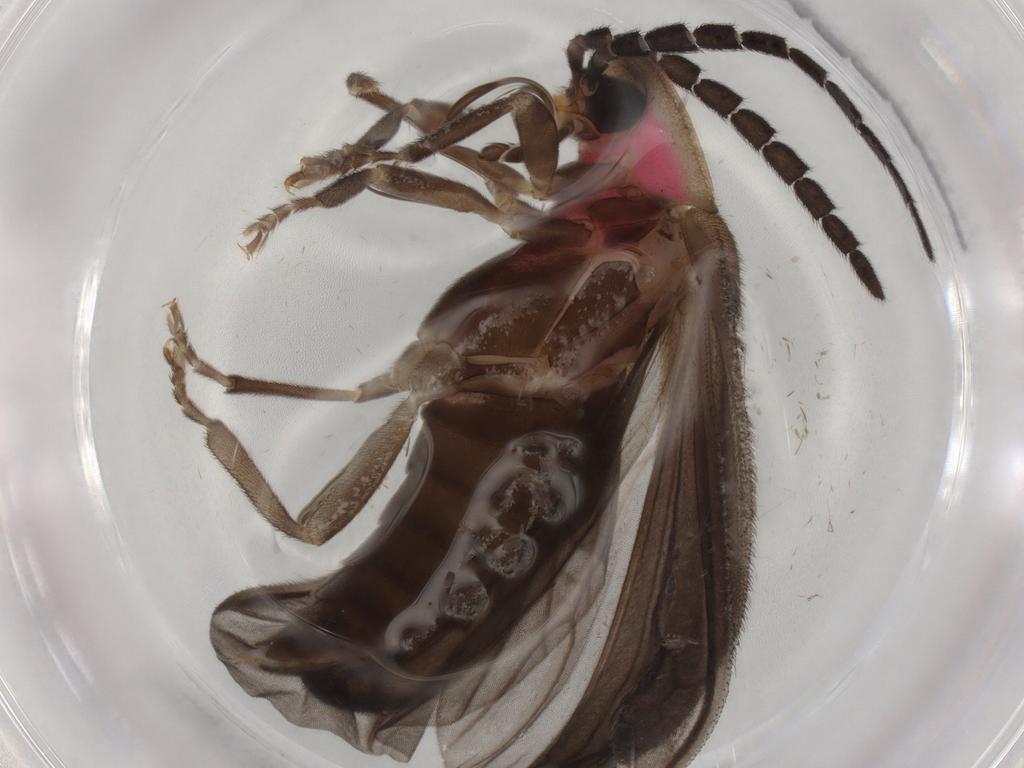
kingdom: Animalia
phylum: Arthropoda
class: Insecta
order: Coleoptera
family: Lampyridae
